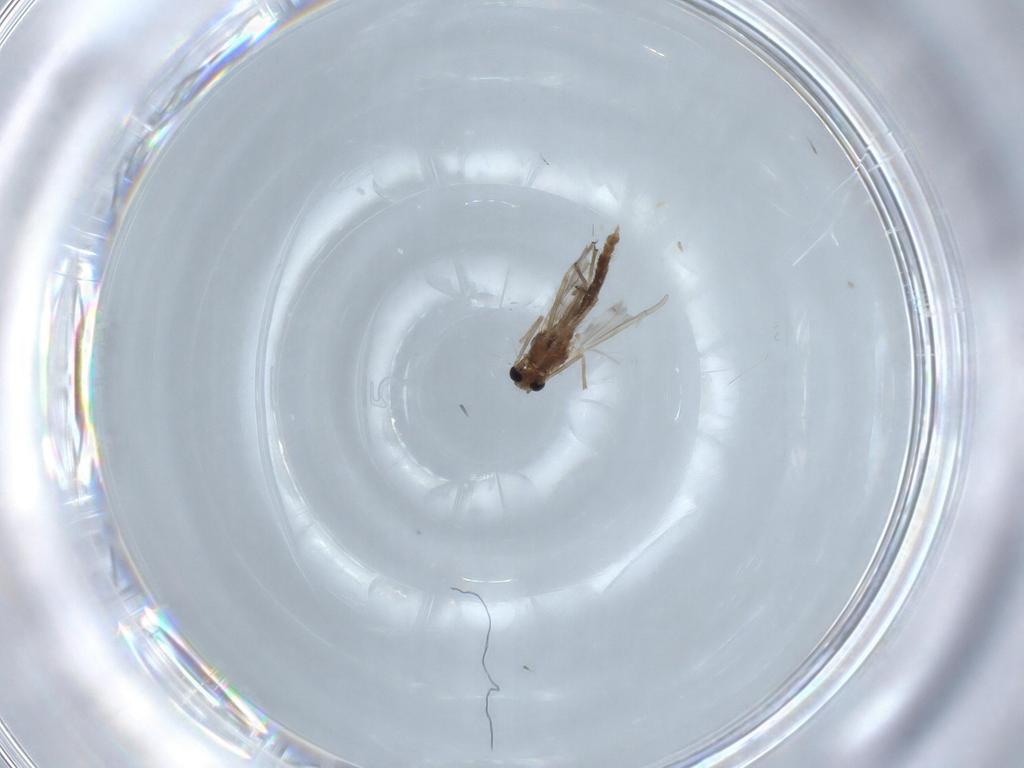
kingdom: Animalia
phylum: Arthropoda
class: Insecta
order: Diptera
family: Chironomidae
